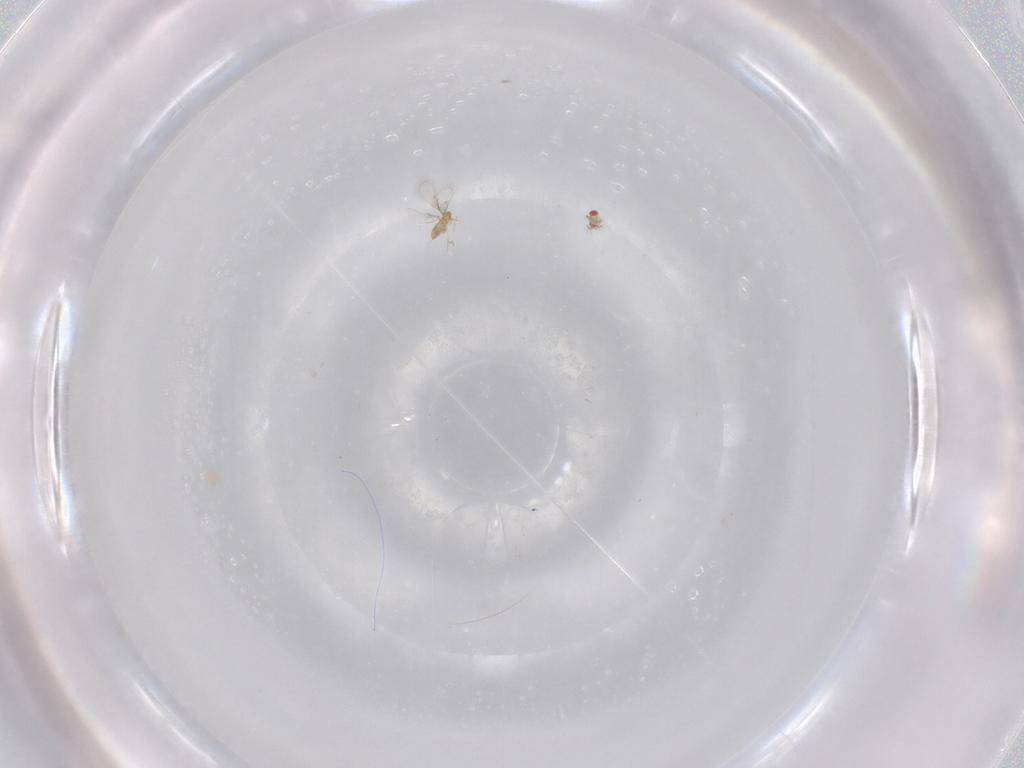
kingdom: Animalia
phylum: Arthropoda
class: Insecta
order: Hymenoptera
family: Trichogrammatidae
